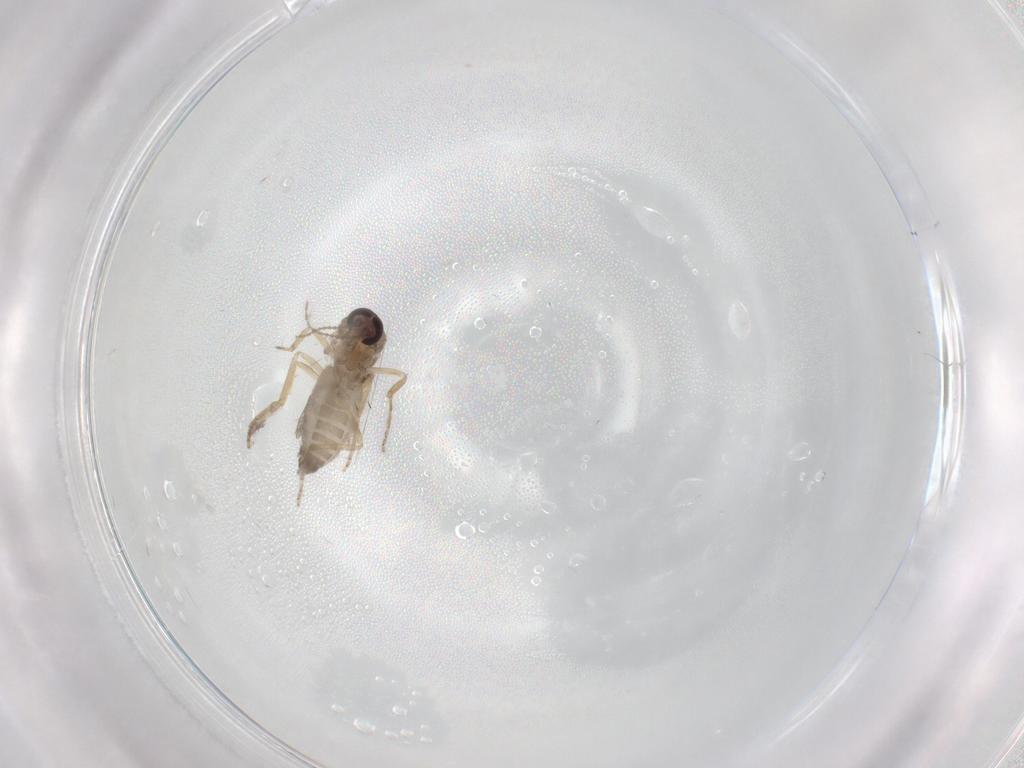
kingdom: Animalia
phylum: Arthropoda
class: Insecta
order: Diptera
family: Ceratopogonidae
